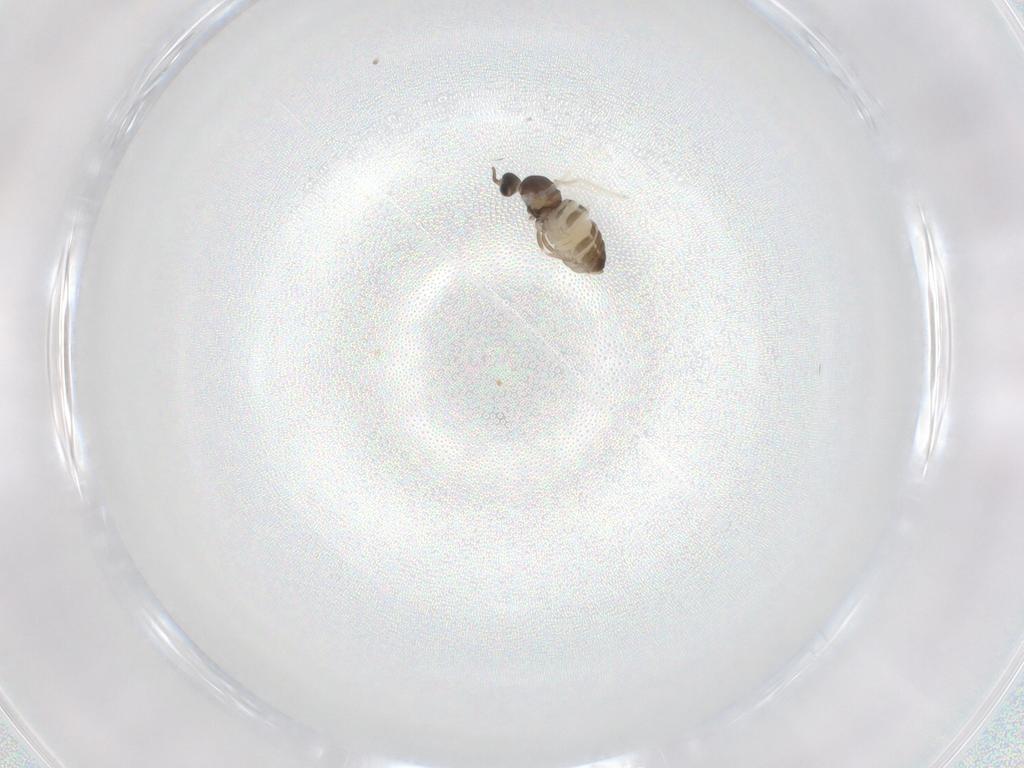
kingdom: Animalia
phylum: Arthropoda
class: Insecta
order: Diptera
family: Cecidomyiidae
